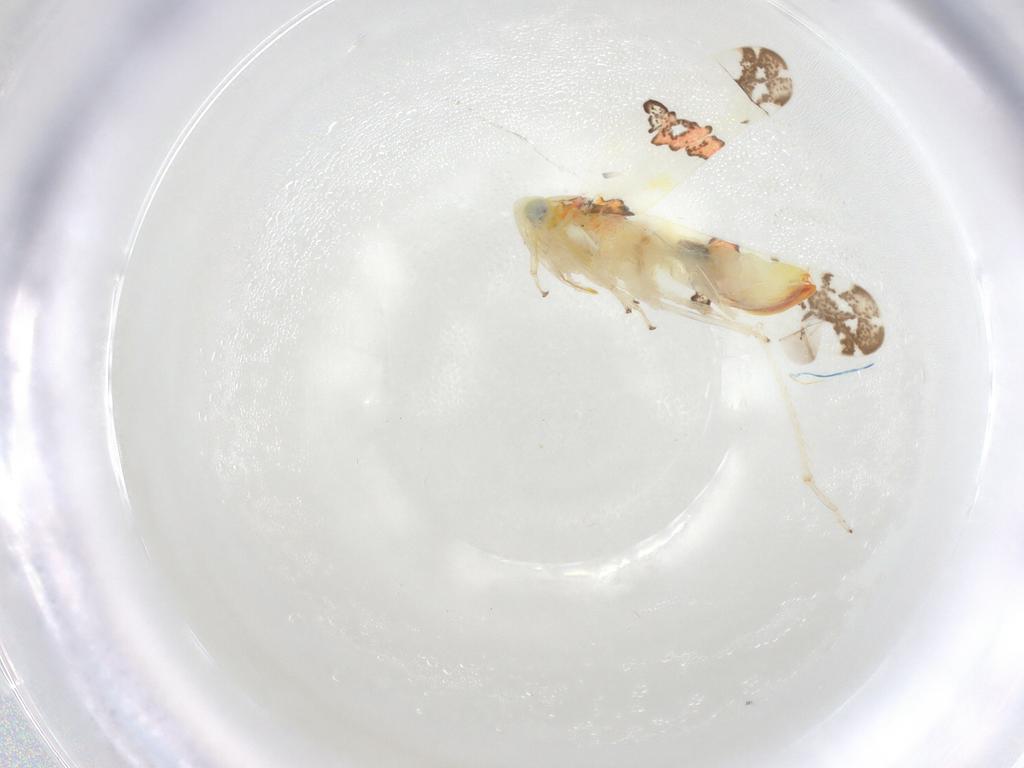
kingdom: Animalia
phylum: Arthropoda
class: Insecta
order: Hemiptera
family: Cicadellidae
